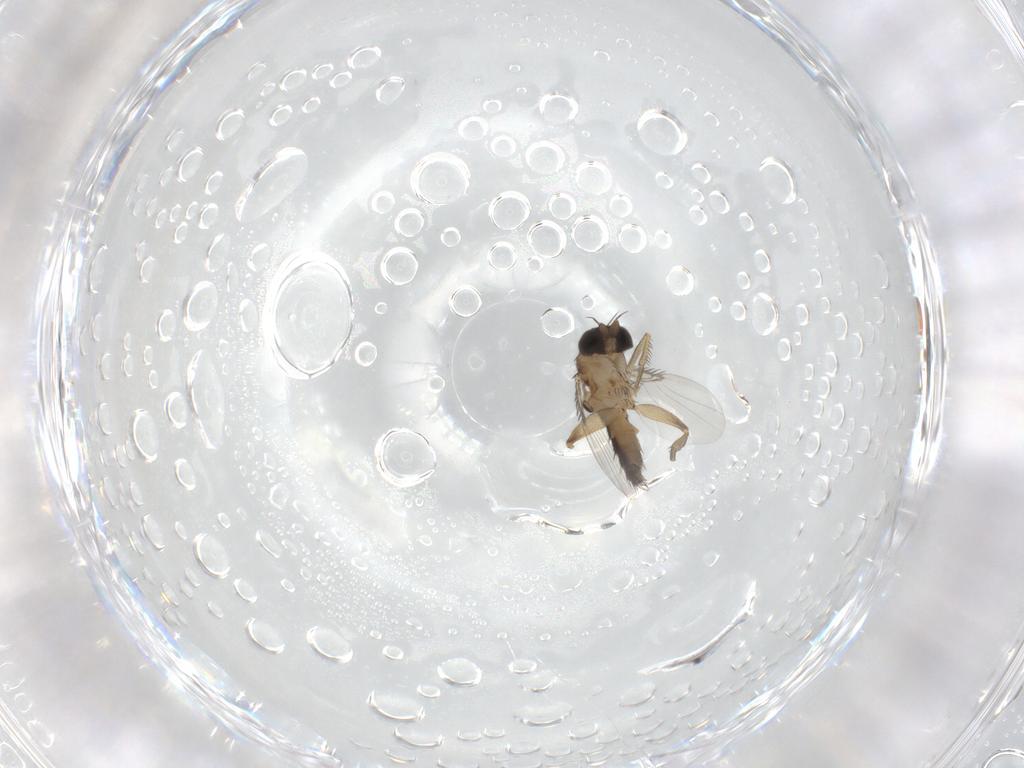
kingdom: Animalia
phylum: Arthropoda
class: Insecta
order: Diptera
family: Phoridae
